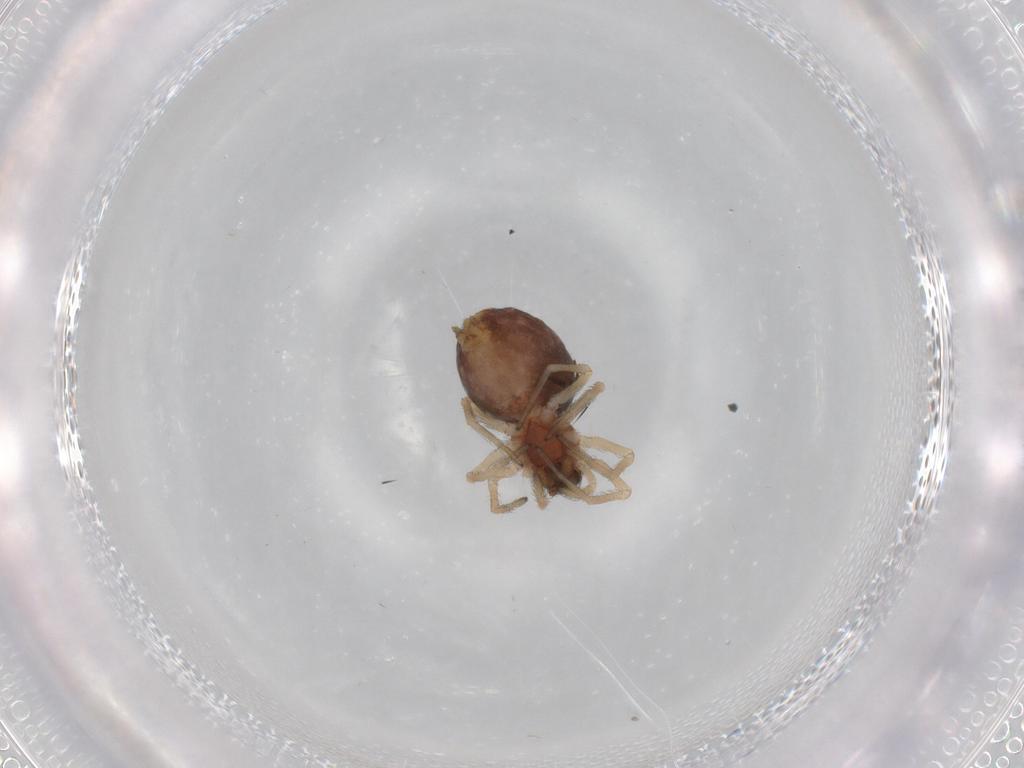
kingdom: Animalia
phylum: Arthropoda
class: Arachnida
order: Araneae
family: Dictynidae
